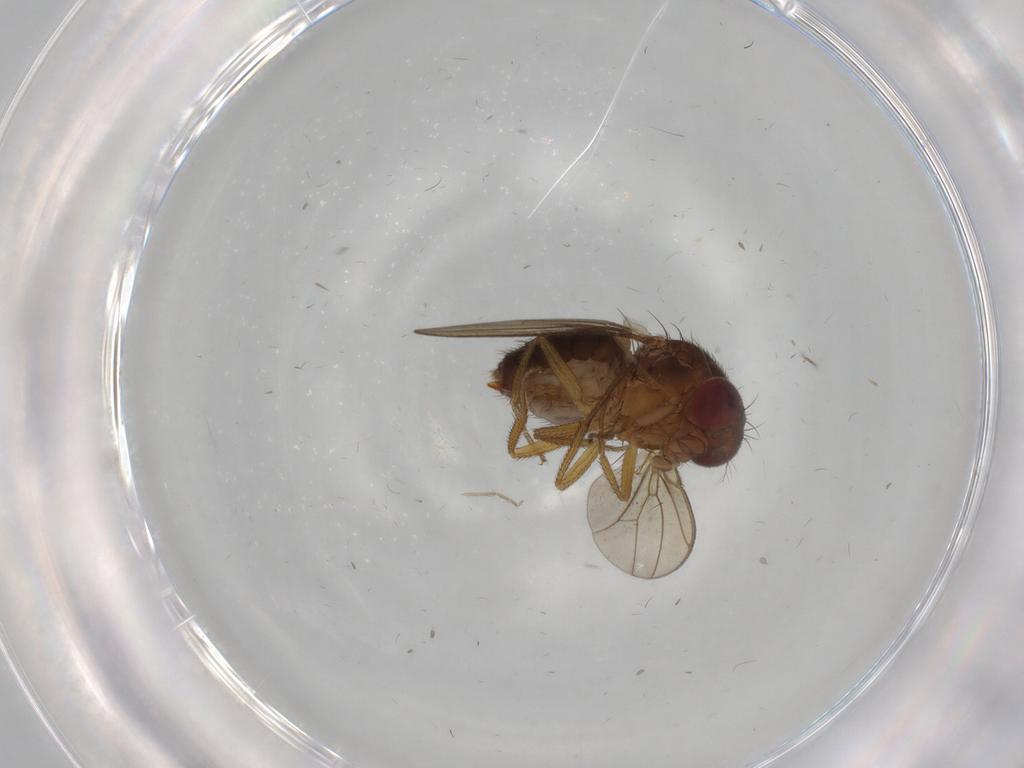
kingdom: Animalia
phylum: Arthropoda
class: Insecta
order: Diptera
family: Drosophilidae
